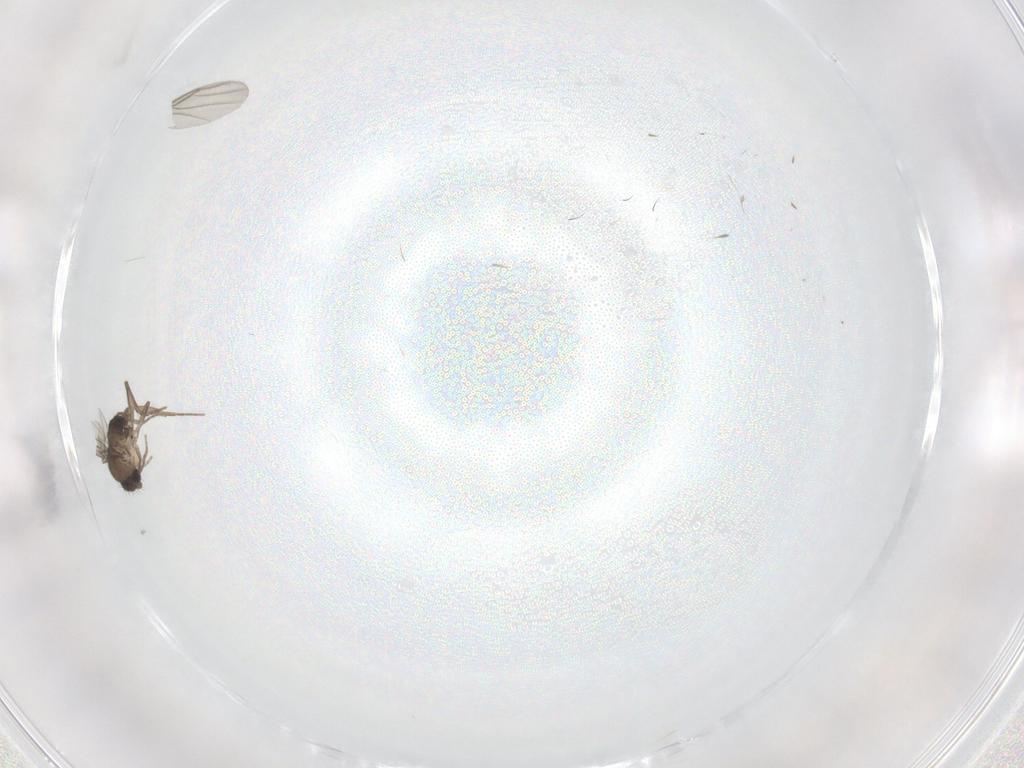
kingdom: Animalia
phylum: Arthropoda
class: Insecta
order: Diptera
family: Phoridae
